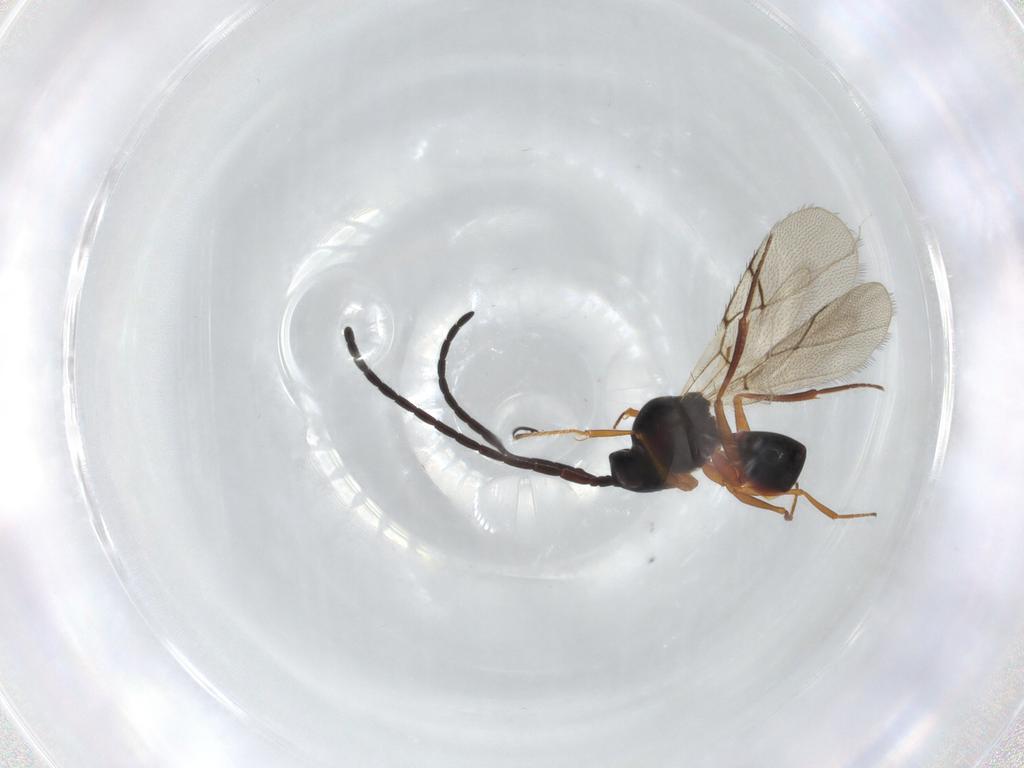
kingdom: Animalia
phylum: Arthropoda
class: Insecta
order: Hymenoptera
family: Figitidae
